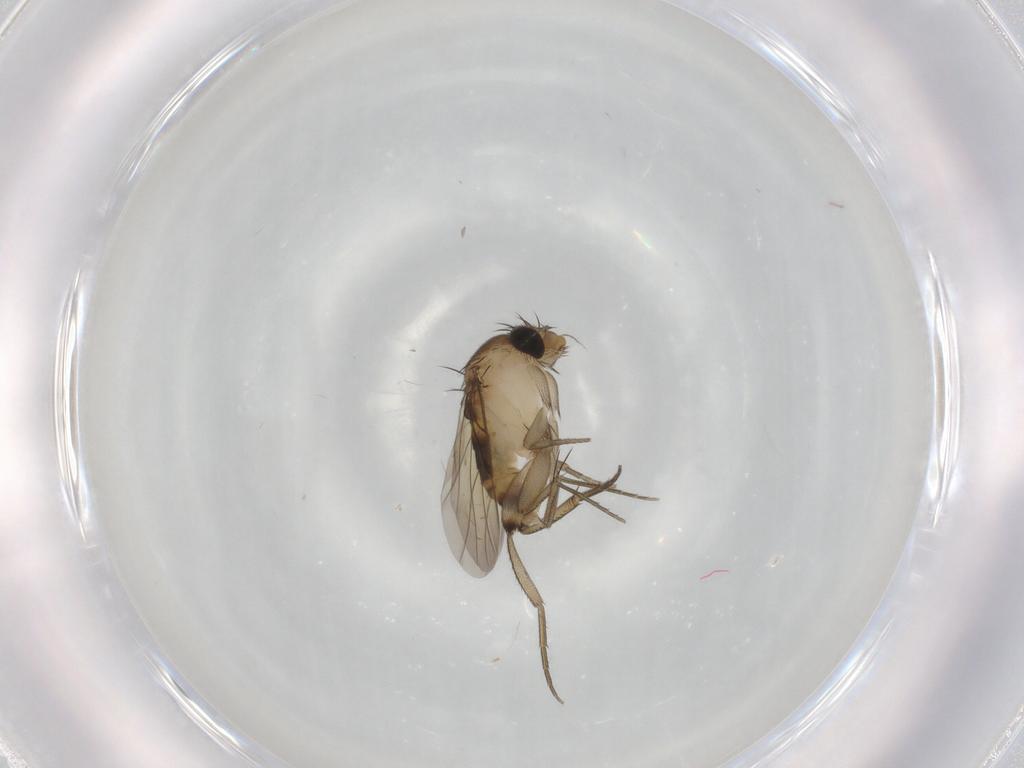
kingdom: Animalia
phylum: Arthropoda
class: Insecta
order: Diptera
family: Phoridae
